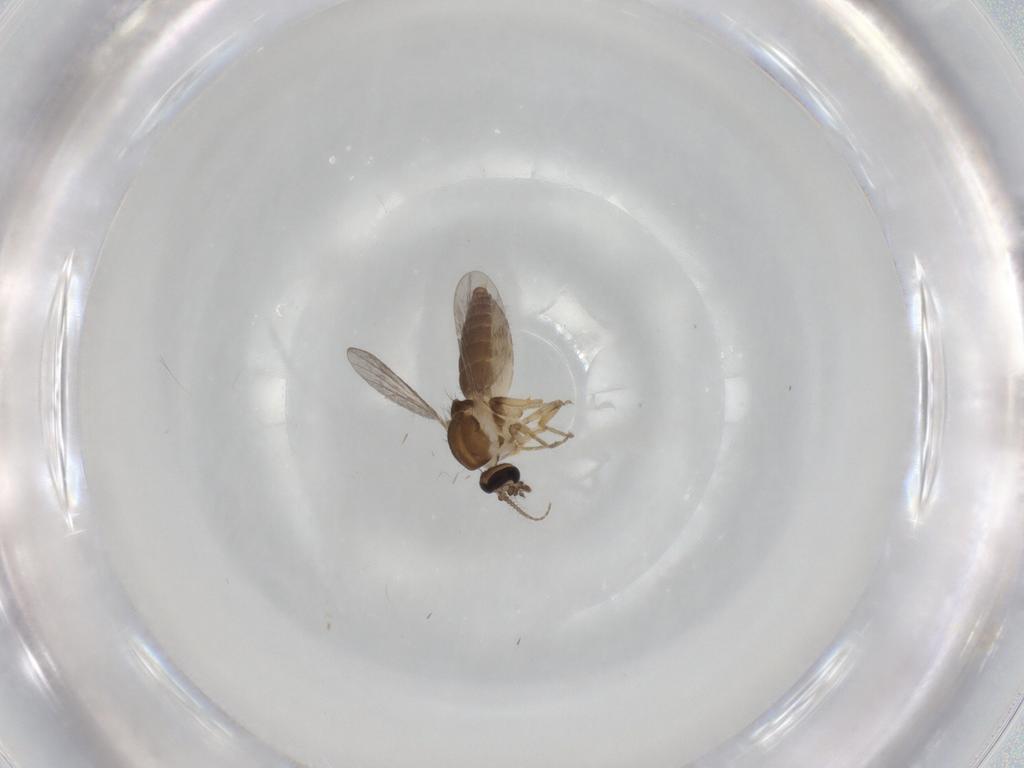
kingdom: Animalia
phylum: Arthropoda
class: Insecta
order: Diptera
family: Ceratopogonidae
